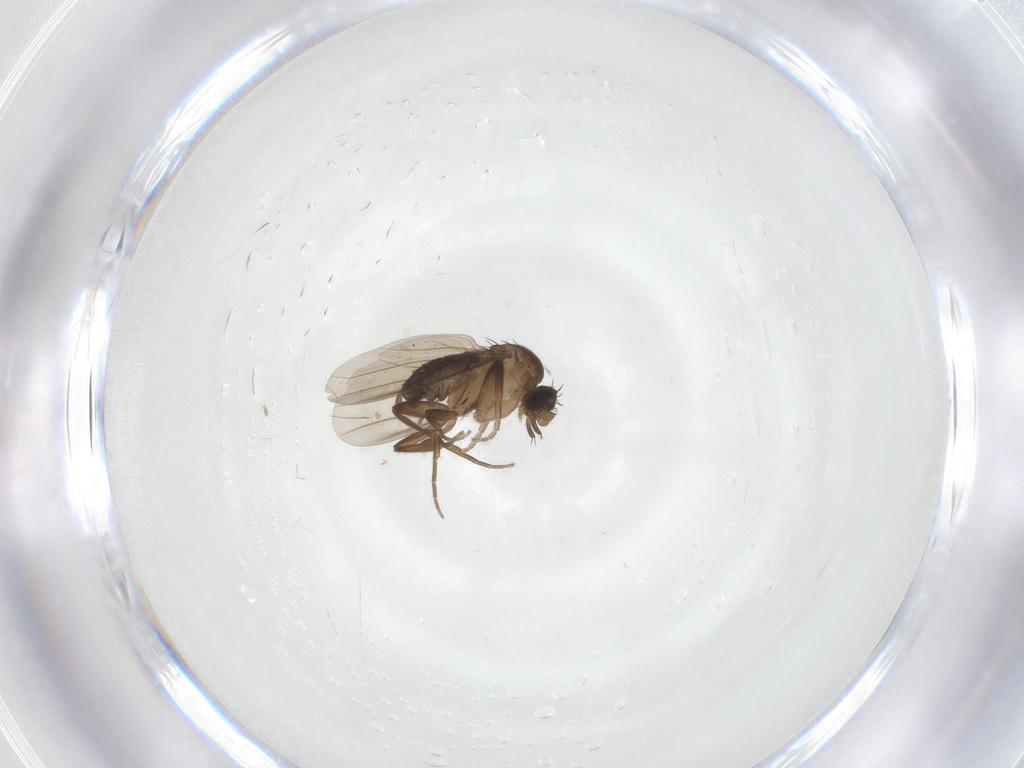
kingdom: Animalia
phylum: Arthropoda
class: Insecta
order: Diptera
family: Phoridae
